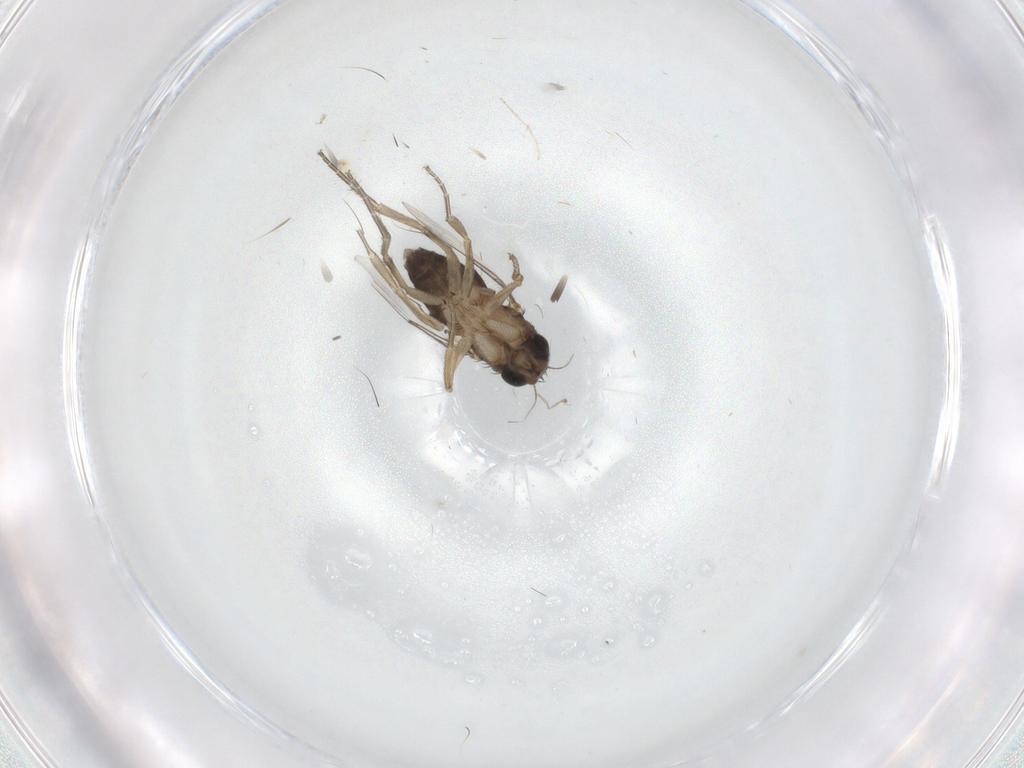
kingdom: Animalia
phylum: Arthropoda
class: Insecta
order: Diptera
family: Phoridae
